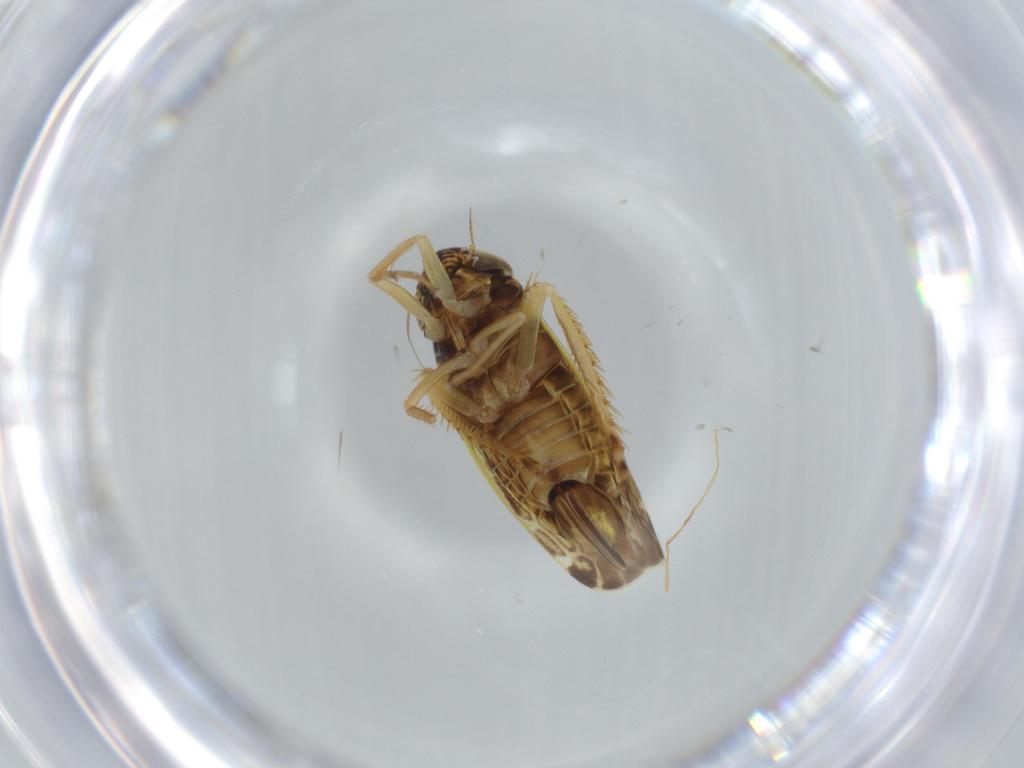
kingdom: Animalia
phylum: Arthropoda
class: Insecta
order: Hemiptera
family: Cicadellidae
